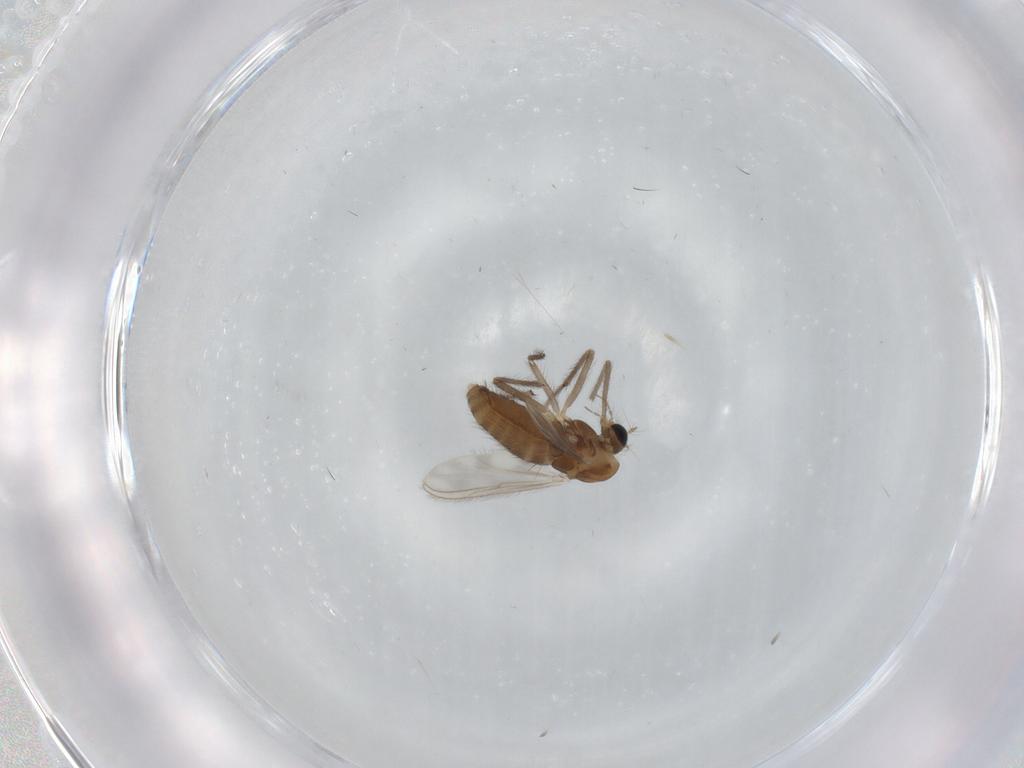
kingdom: Animalia
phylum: Arthropoda
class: Insecta
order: Diptera
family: Chironomidae
